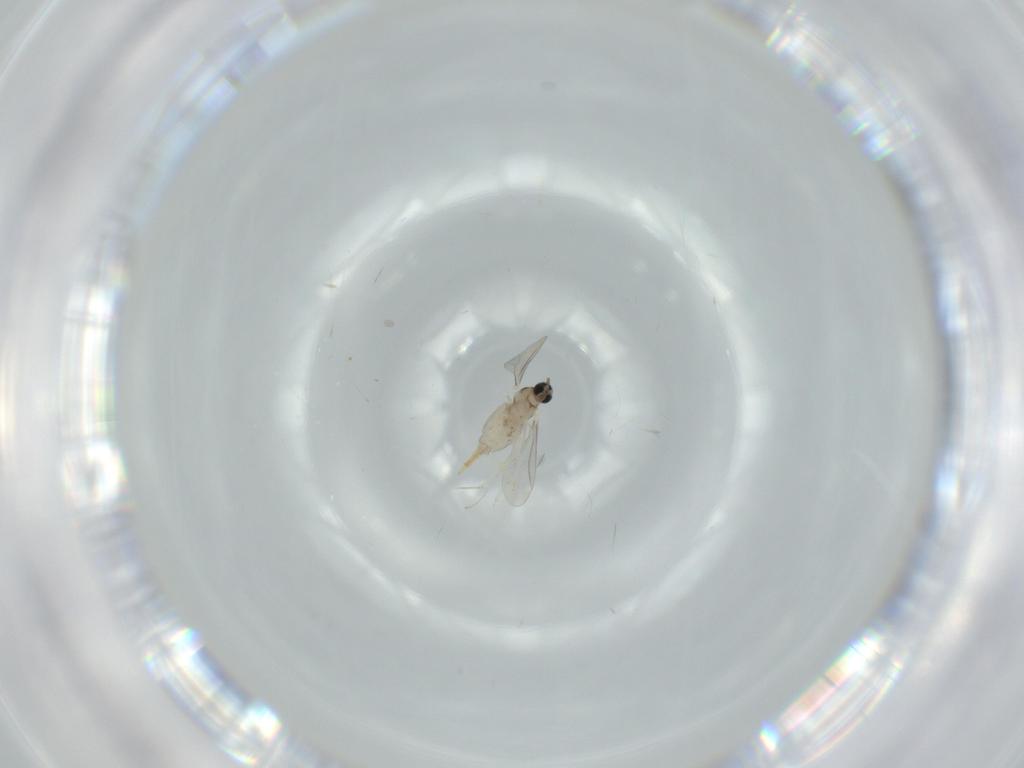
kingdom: Animalia
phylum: Arthropoda
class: Insecta
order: Diptera
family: Cecidomyiidae
